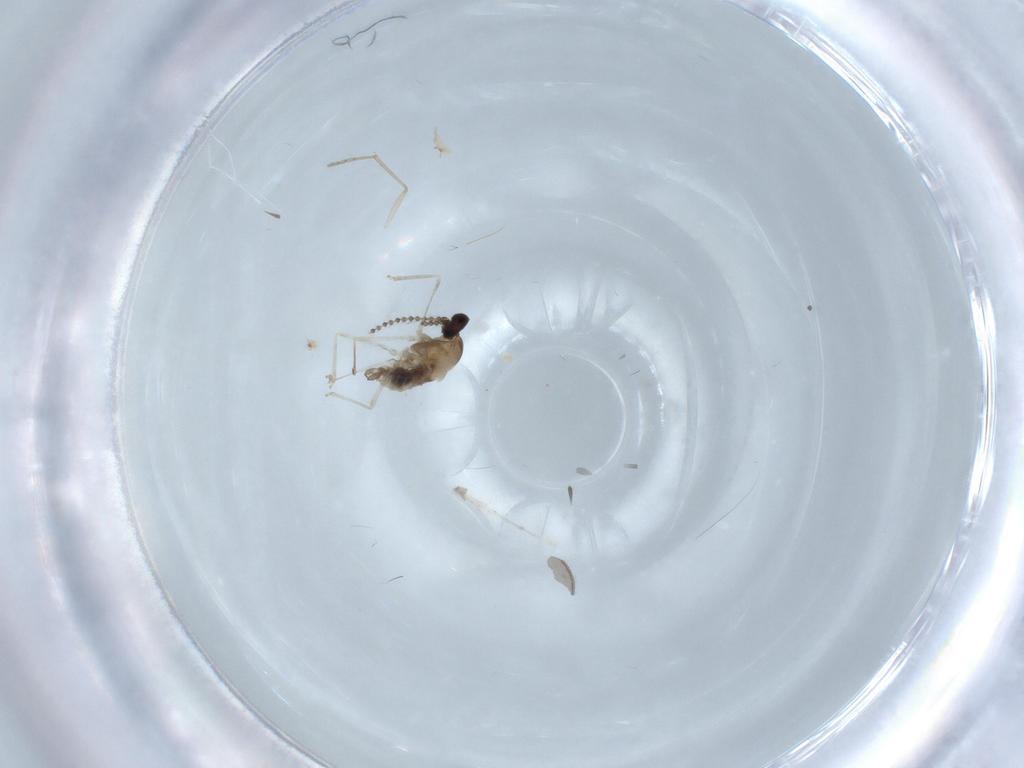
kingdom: Animalia
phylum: Arthropoda
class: Insecta
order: Diptera
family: Cecidomyiidae
